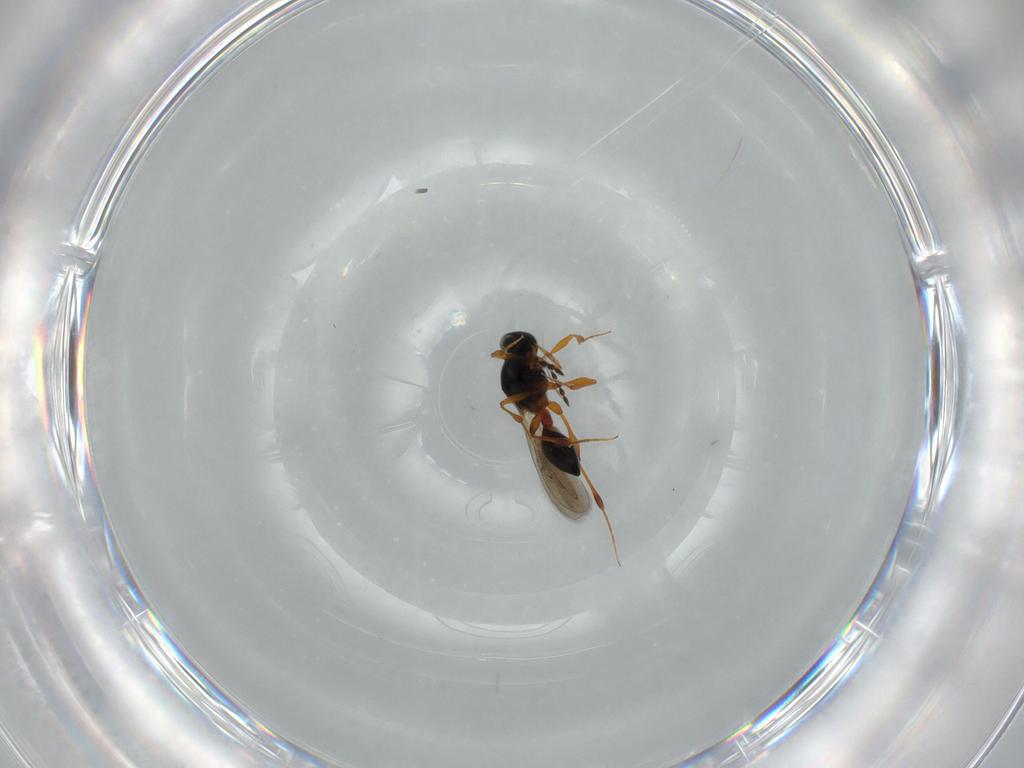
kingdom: Animalia
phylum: Arthropoda
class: Insecta
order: Hymenoptera
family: Platygastridae
